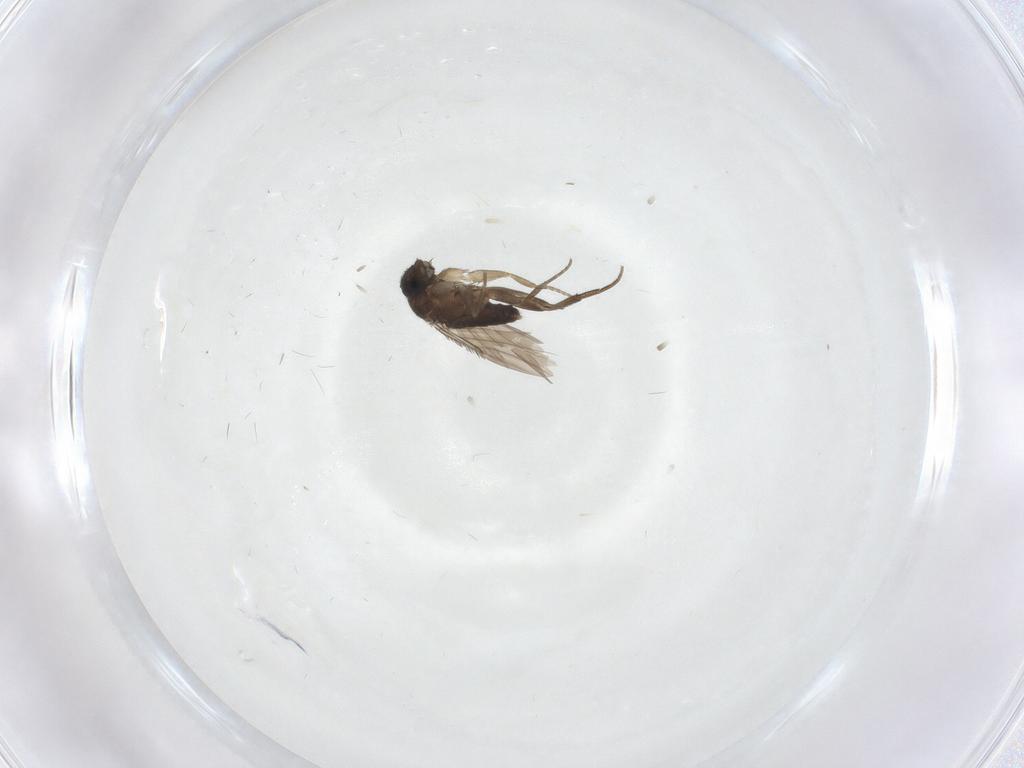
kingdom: Animalia
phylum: Arthropoda
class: Insecta
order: Diptera
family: Phoridae
